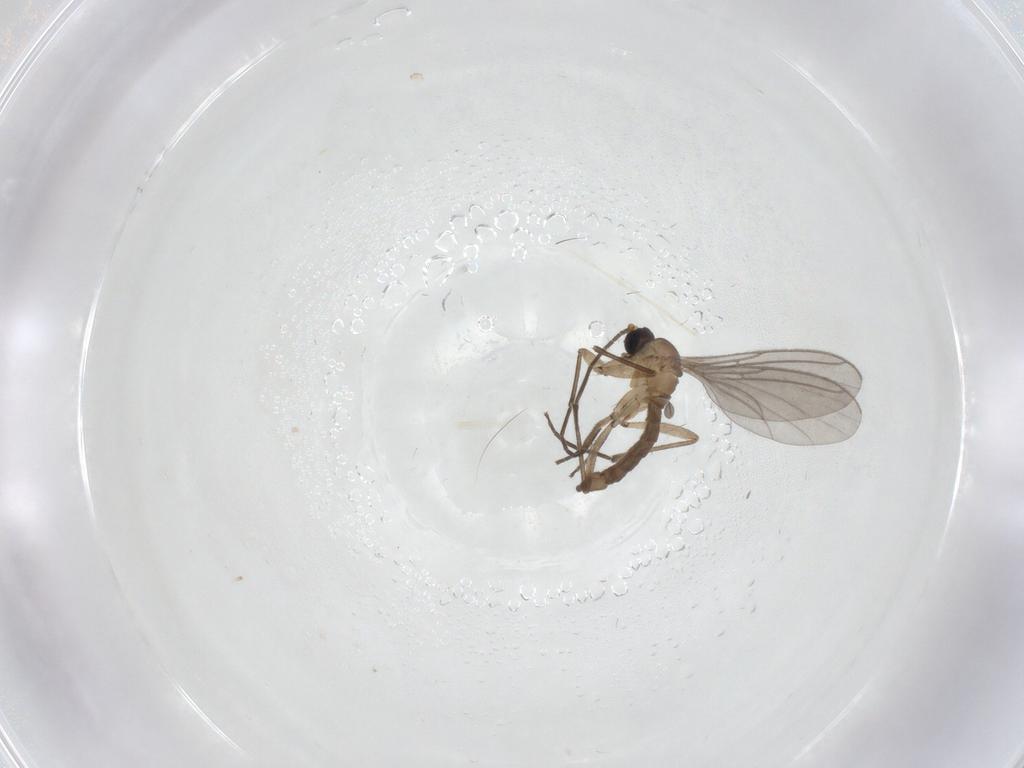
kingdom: Animalia
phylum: Arthropoda
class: Insecta
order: Diptera
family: Chironomidae
